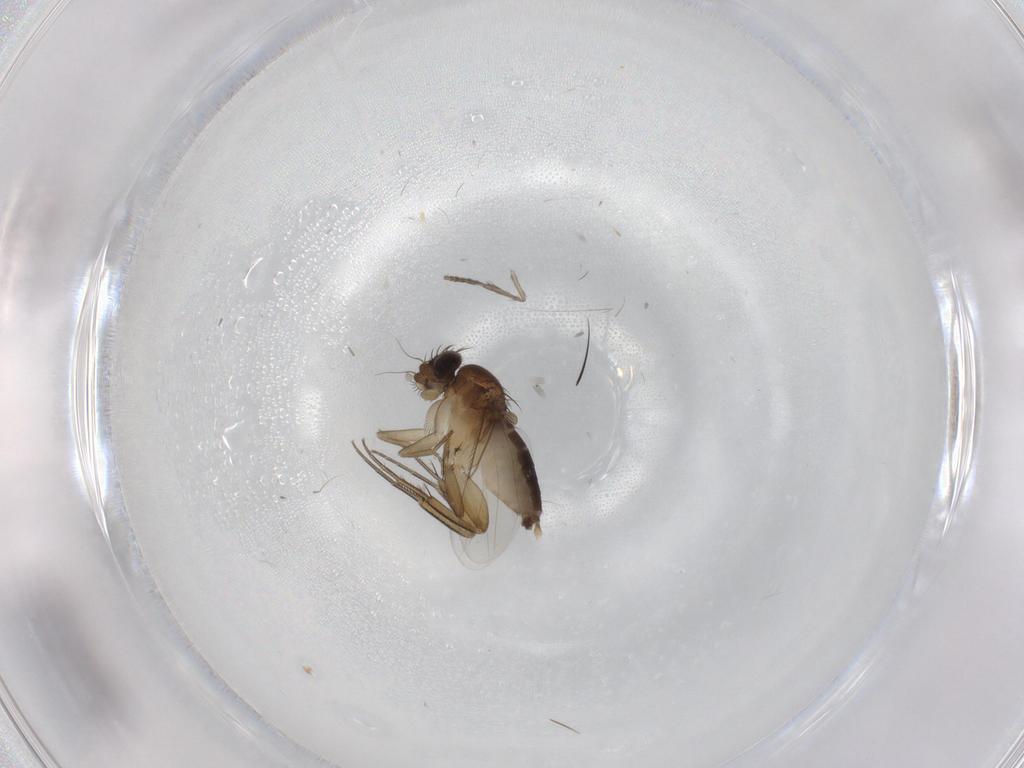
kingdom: Animalia
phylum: Arthropoda
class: Insecta
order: Diptera
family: Phoridae
